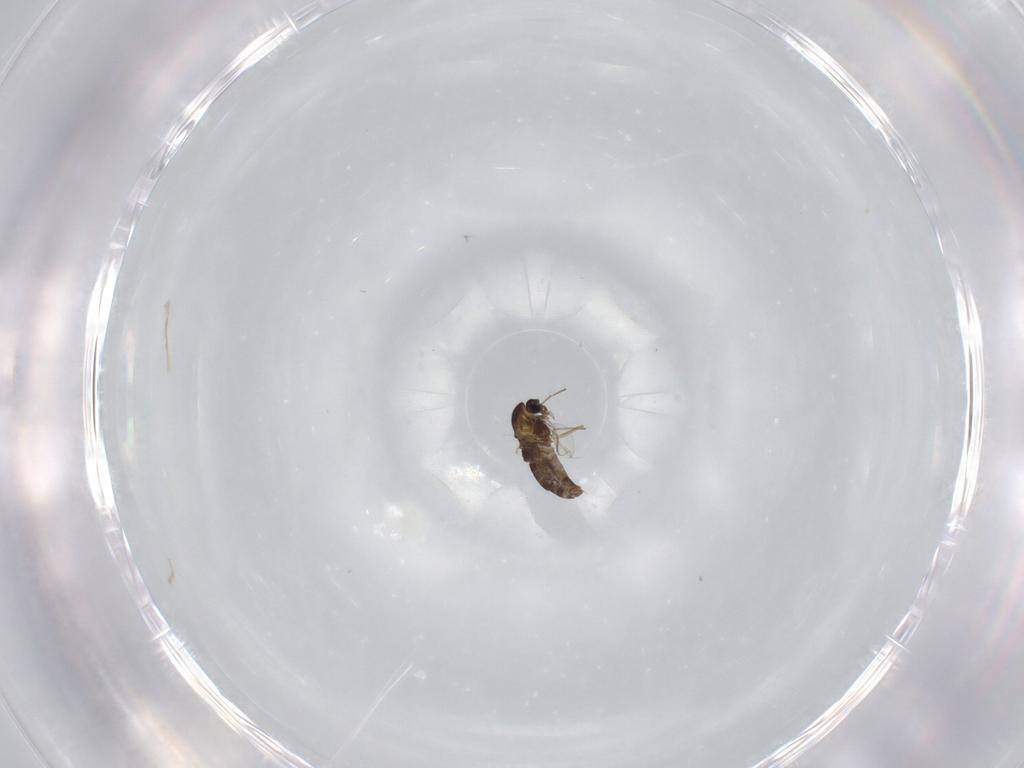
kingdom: Animalia
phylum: Arthropoda
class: Insecta
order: Diptera
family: Chironomidae
